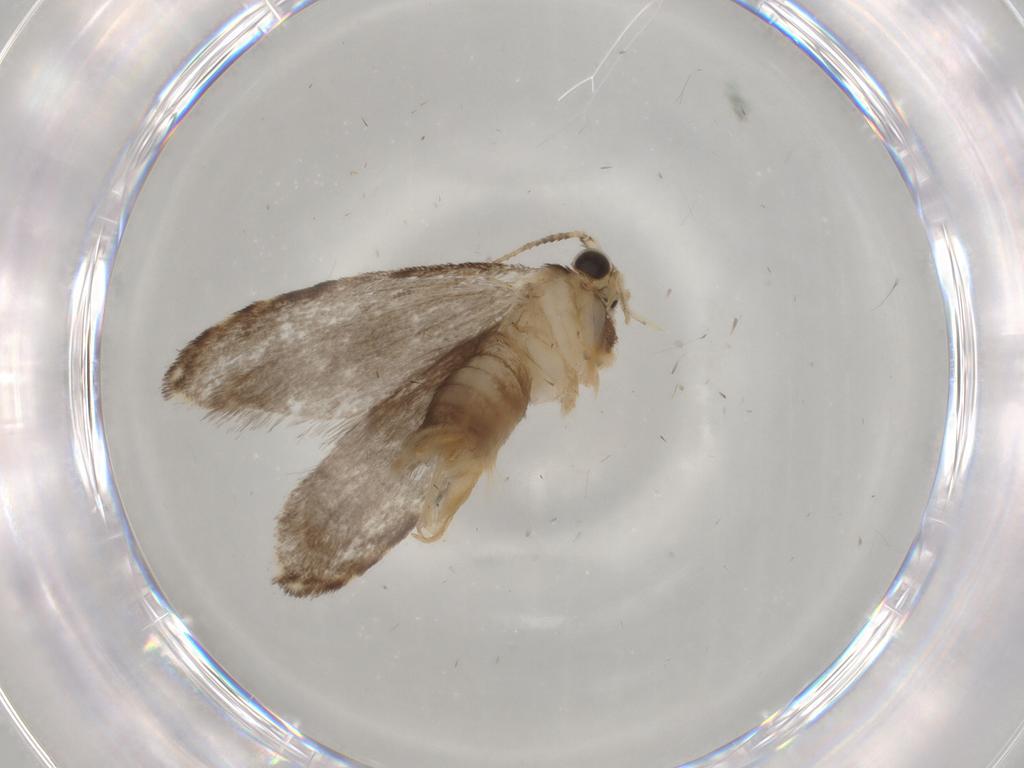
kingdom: Animalia
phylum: Arthropoda
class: Insecta
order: Lepidoptera
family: Tineidae
